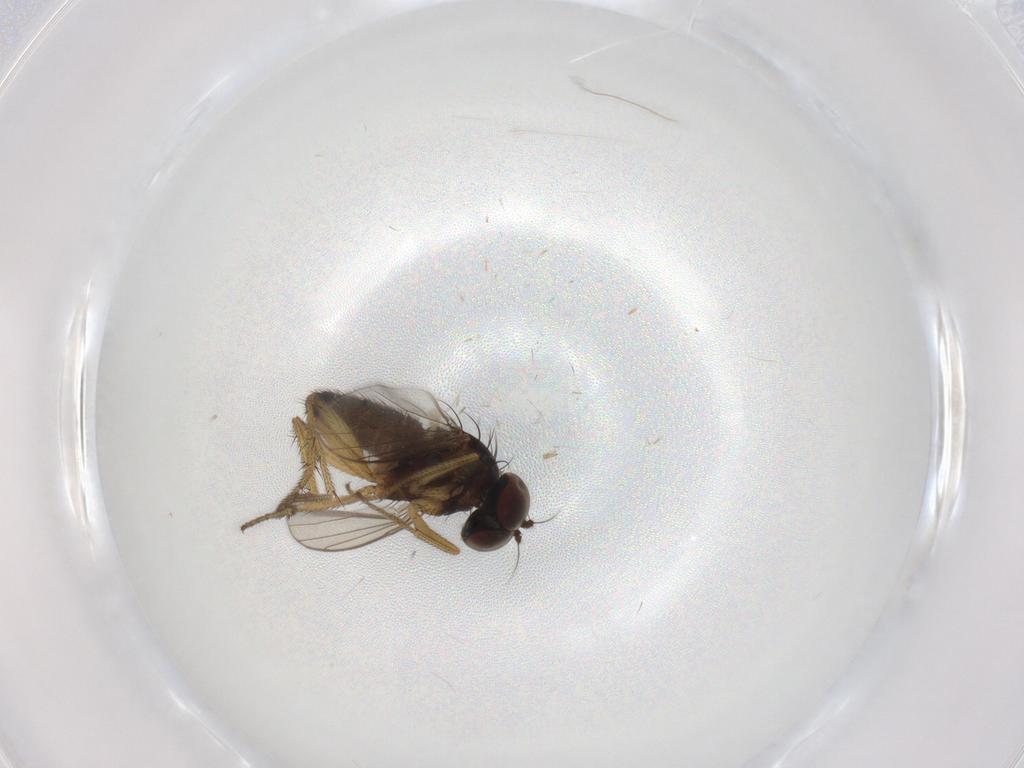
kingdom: Animalia
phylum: Arthropoda
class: Insecta
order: Diptera
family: Dolichopodidae
